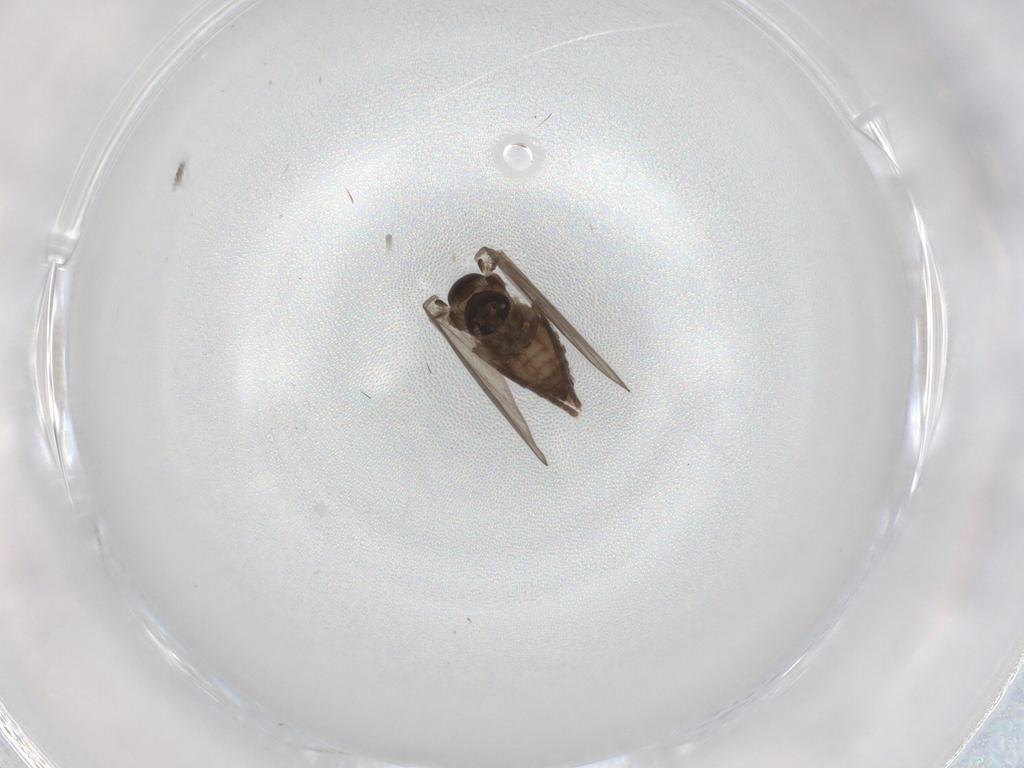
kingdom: Animalia
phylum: Arthropoda
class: Insecta
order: Diptera
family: Psychodidae
